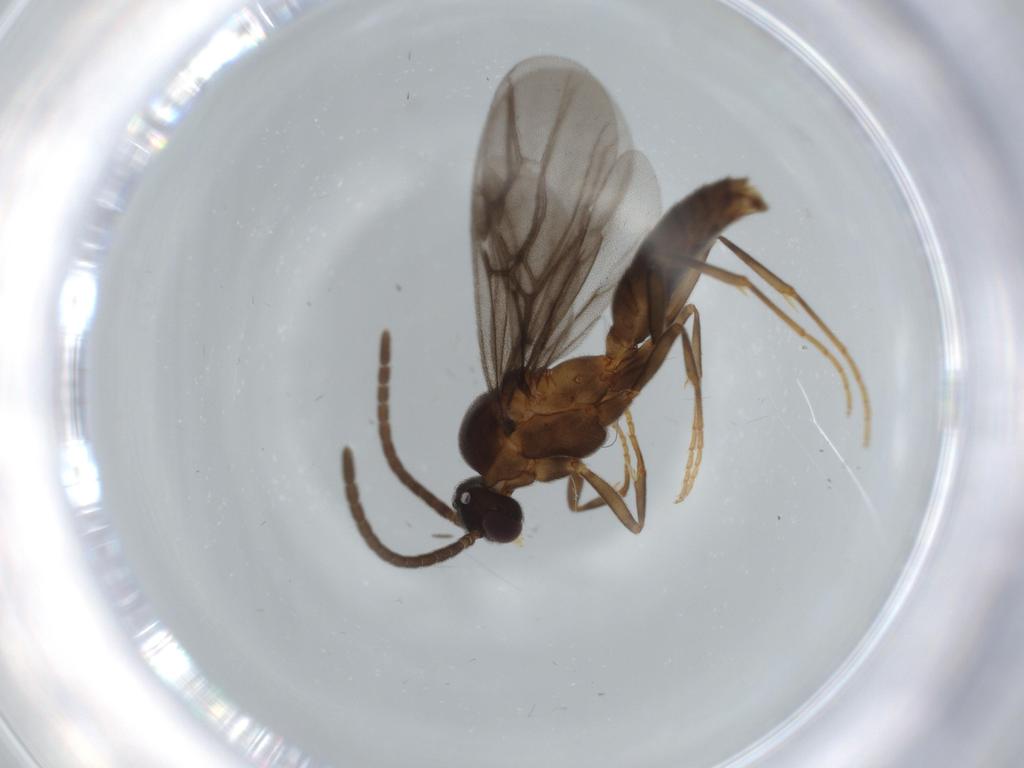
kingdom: Animalia
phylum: Arthropoda
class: Insecta
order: Hymenoptera
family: Formicidae
